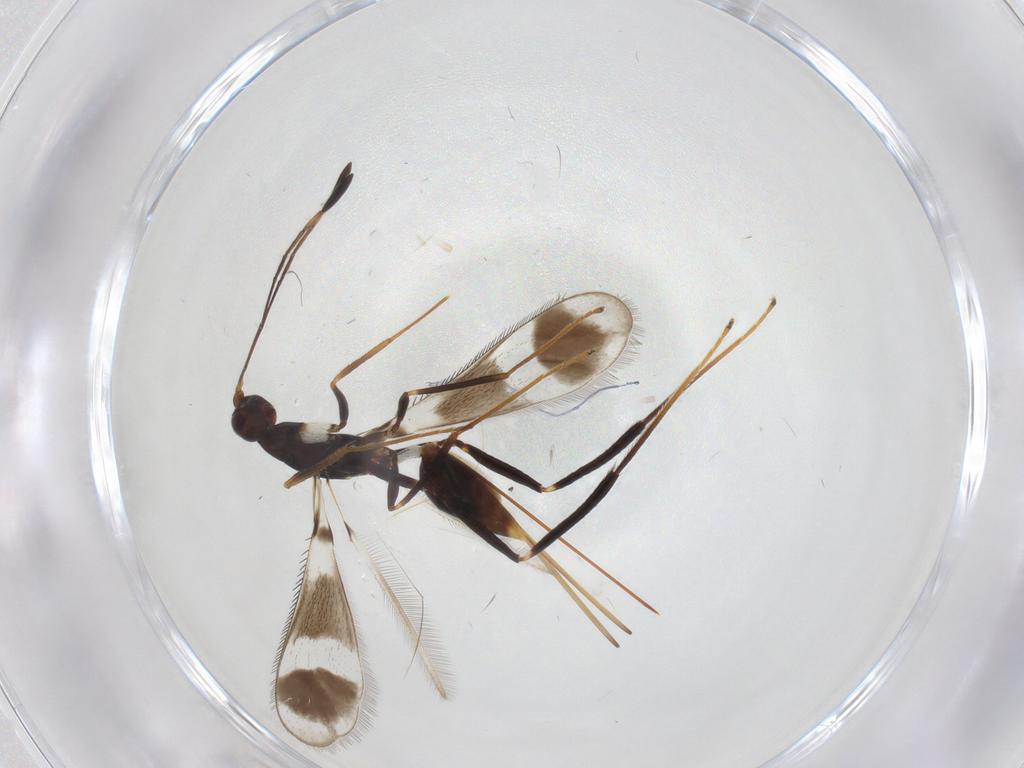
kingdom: Animalia
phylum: Arthropoda
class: Insecta
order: Hymenoptera
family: Mymaridae
